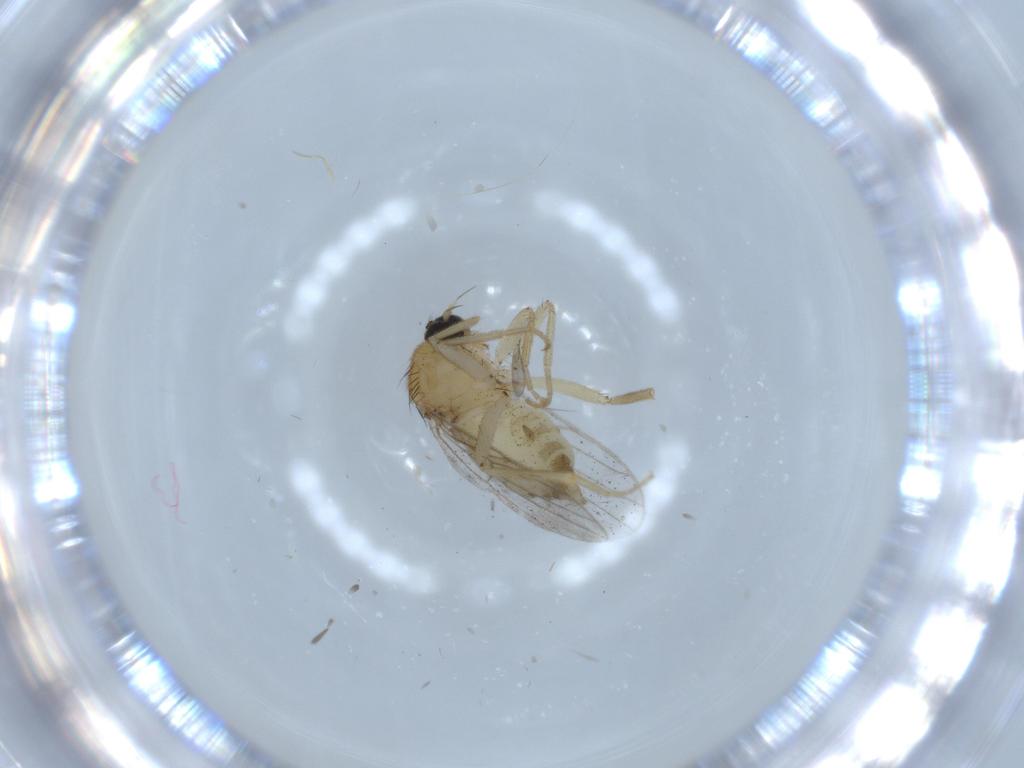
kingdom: Animalia
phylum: Arthropoda
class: Insecta
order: Diptera
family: Hybotidae
